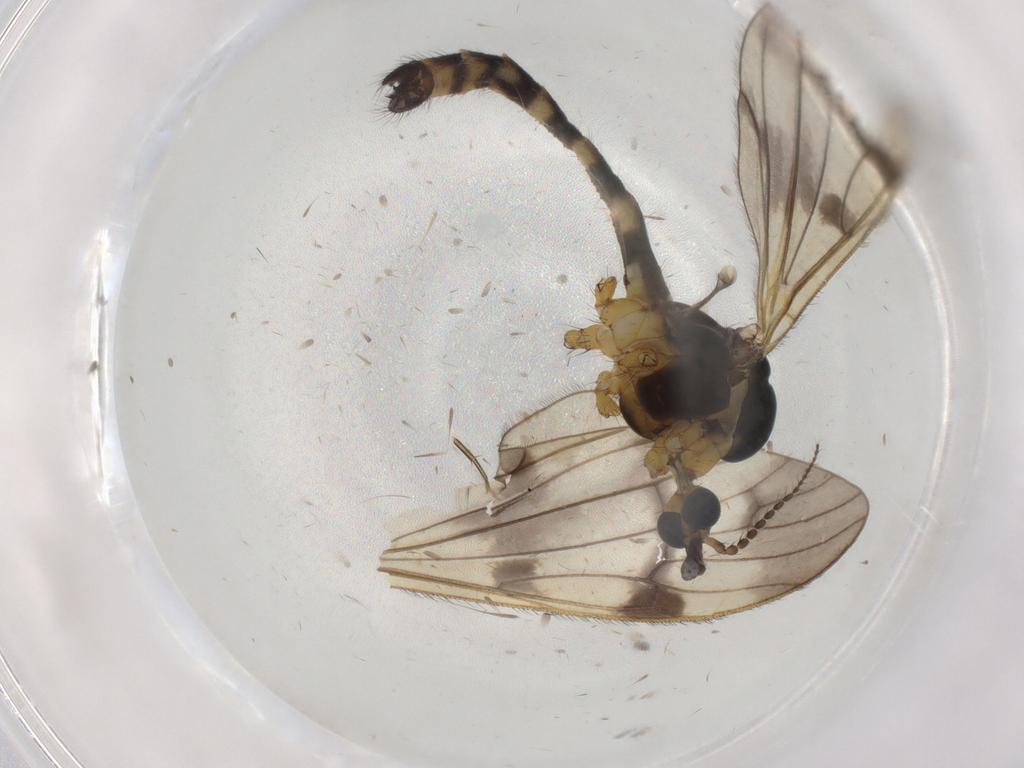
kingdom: Animalia
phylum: Arthropoda
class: Insecta
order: Diptera
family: Limoniidae
